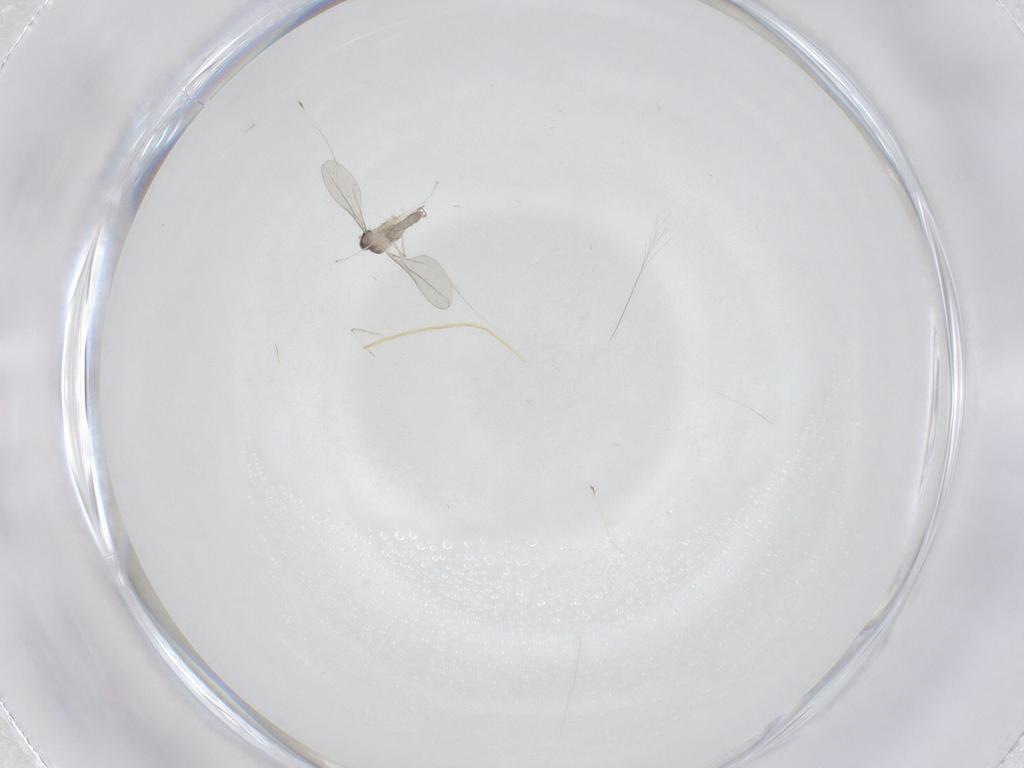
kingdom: Animalia
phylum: Arthropoda
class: Insecta
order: Diptera
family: Cecidomyiidae
